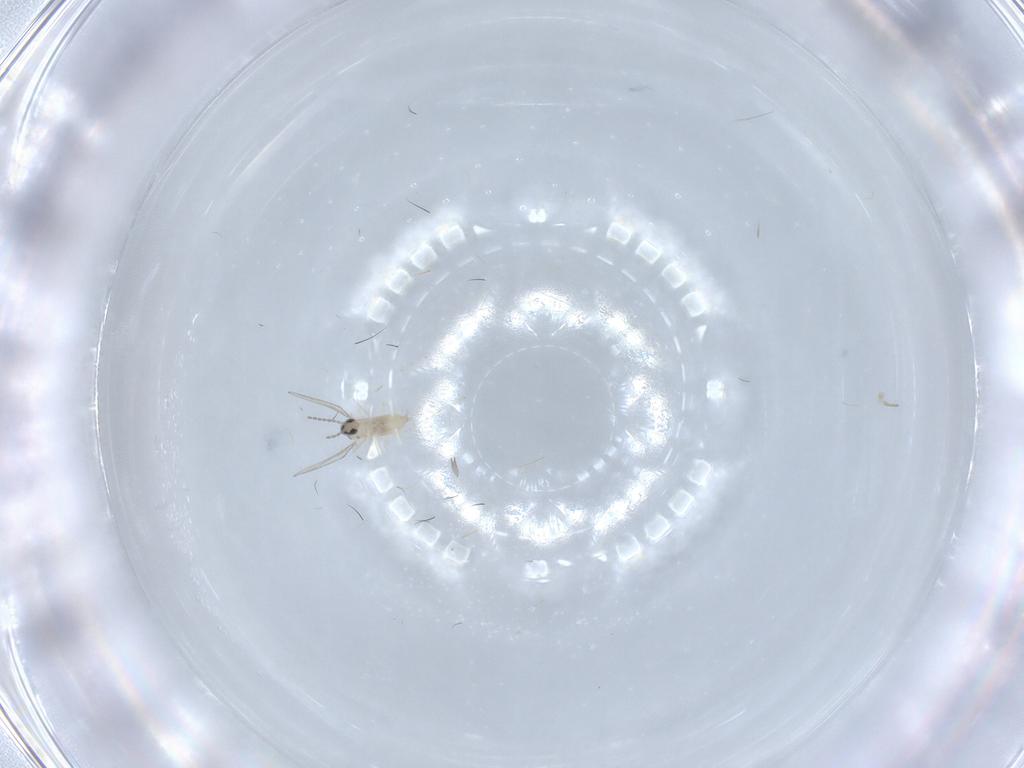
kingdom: Animalia
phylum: Arthropoda
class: Insecta
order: Diptera
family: Cecidomyiidae
